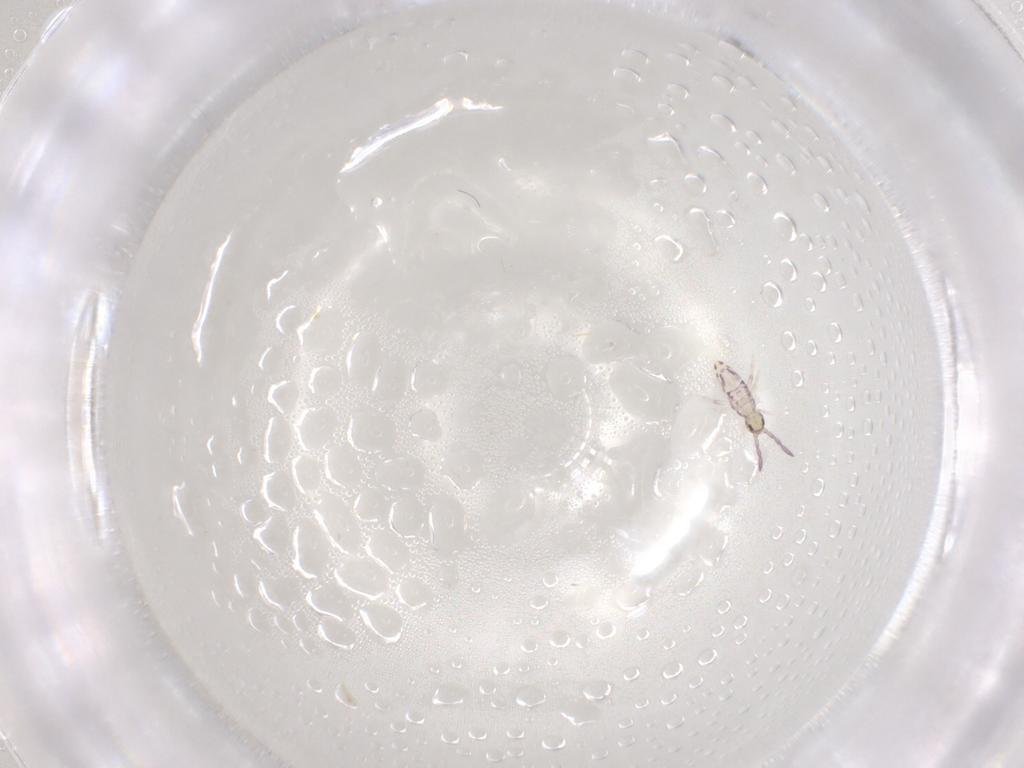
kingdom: Animalia
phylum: Arthropoda
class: Collembola
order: Entomobryomorpha
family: Entomobryidae
